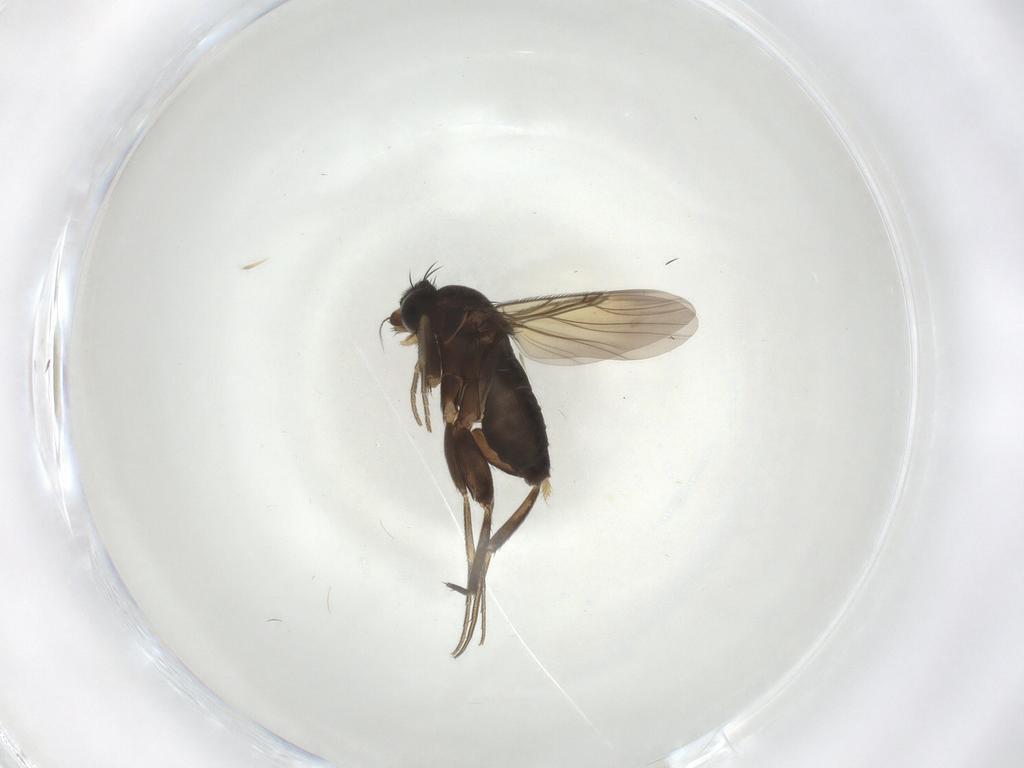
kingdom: Animalia
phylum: Arthropoda
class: Insecta
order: Diptera
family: Phoridae
